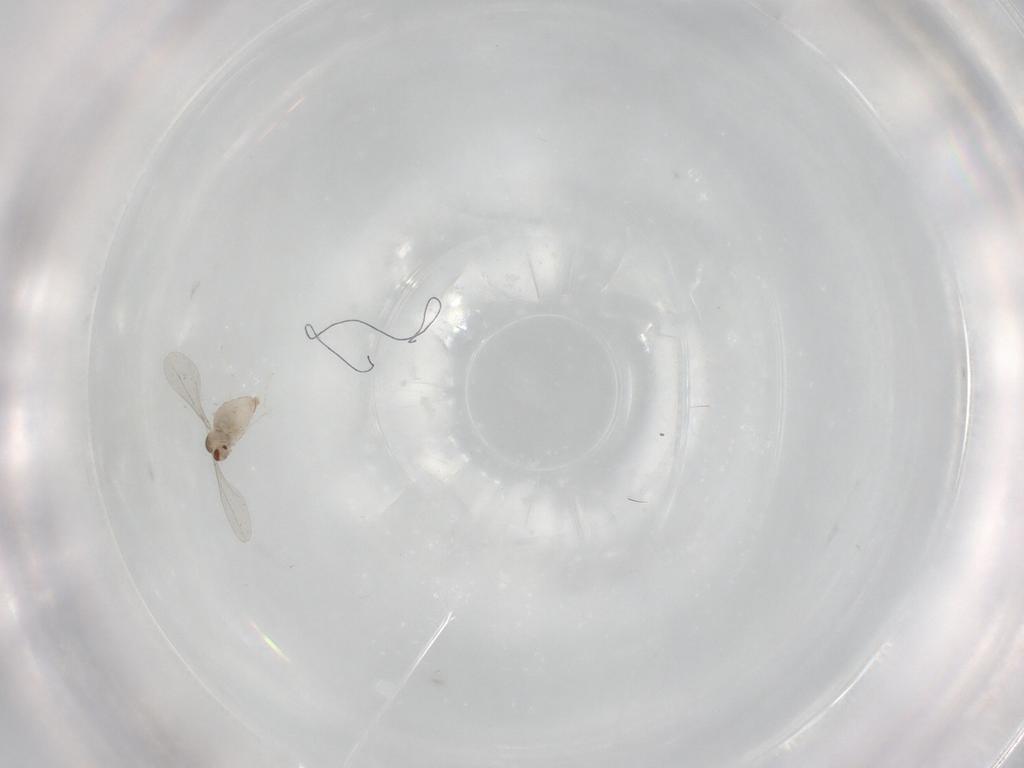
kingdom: Animalia
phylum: Arthropoda
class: Insecta
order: Diptera
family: Cecidomyiidae
